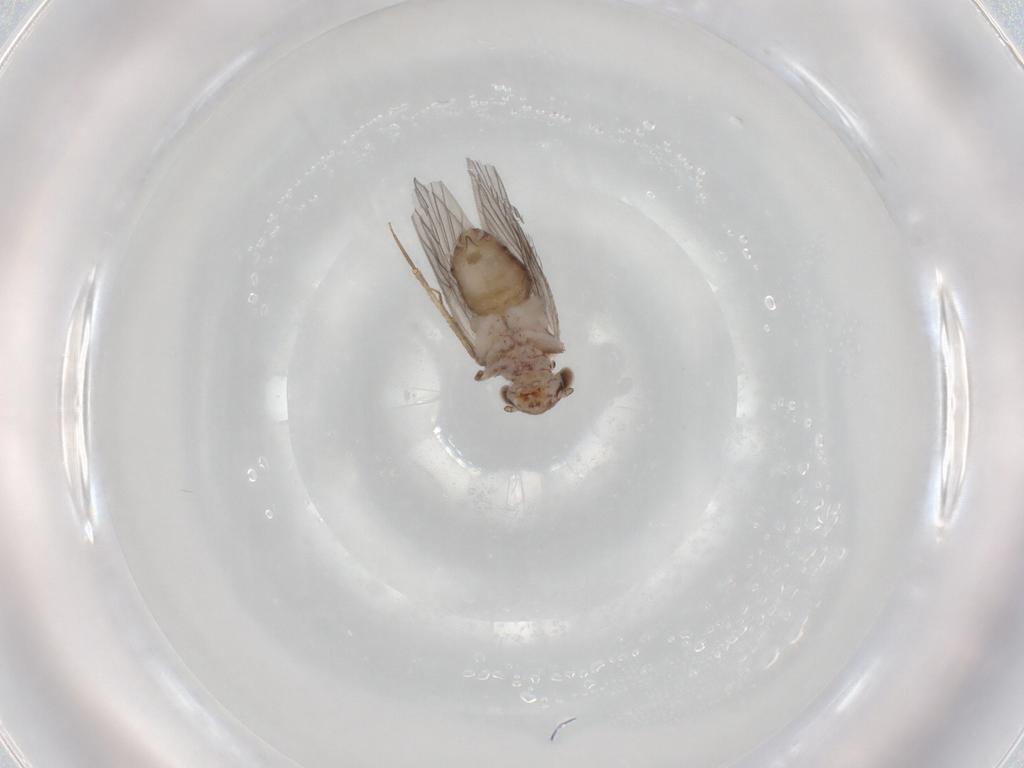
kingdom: Animalia
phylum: Arthropoda
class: Insecta
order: Psocodea
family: Lepidopsocidae
